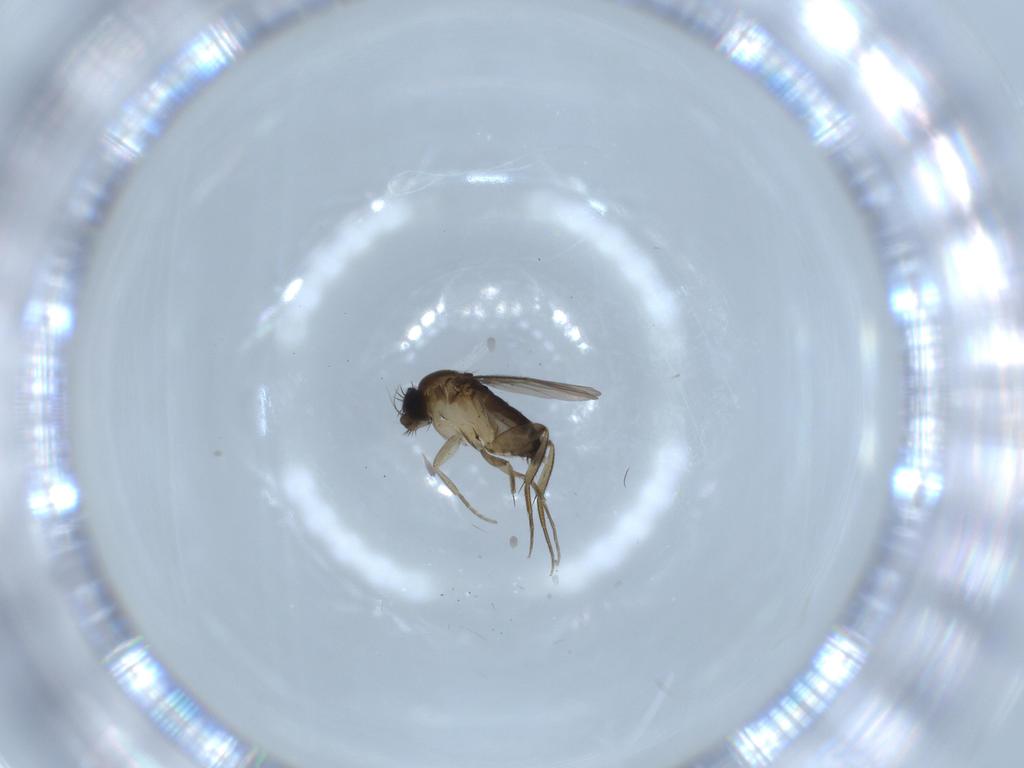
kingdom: Animalia
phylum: Arthropoda
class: Insecta
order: Diptera
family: Phoridae
